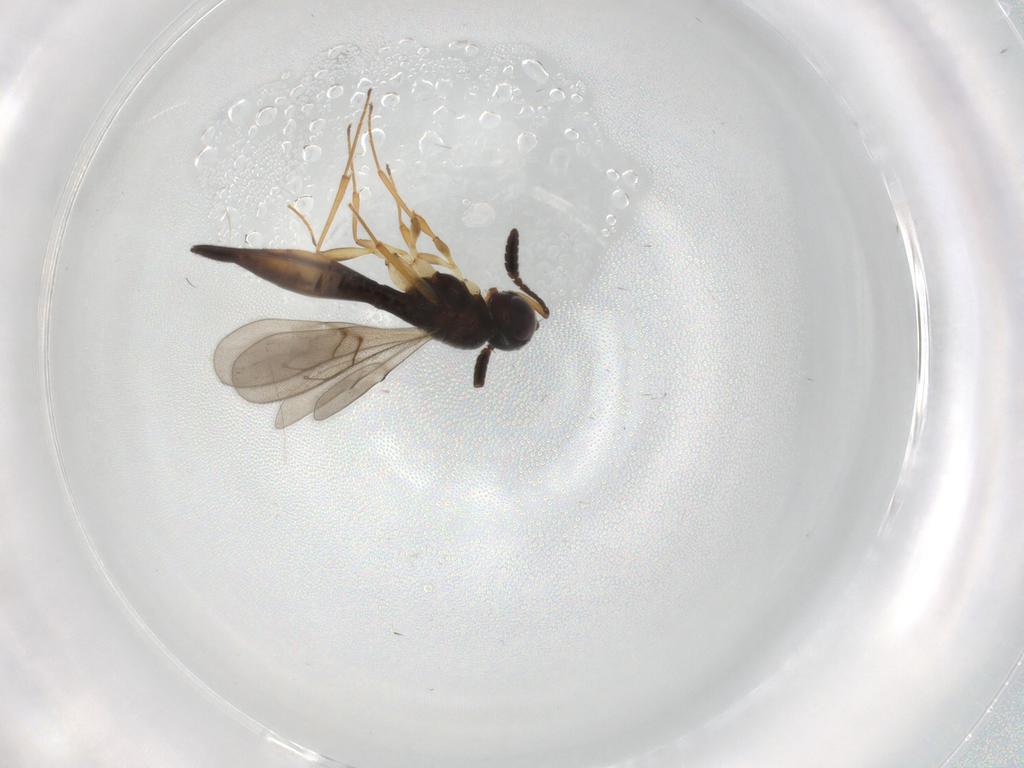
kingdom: Animalia
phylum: Arthropoda
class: Insecta
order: Hymenoptera
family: Scelionidae
